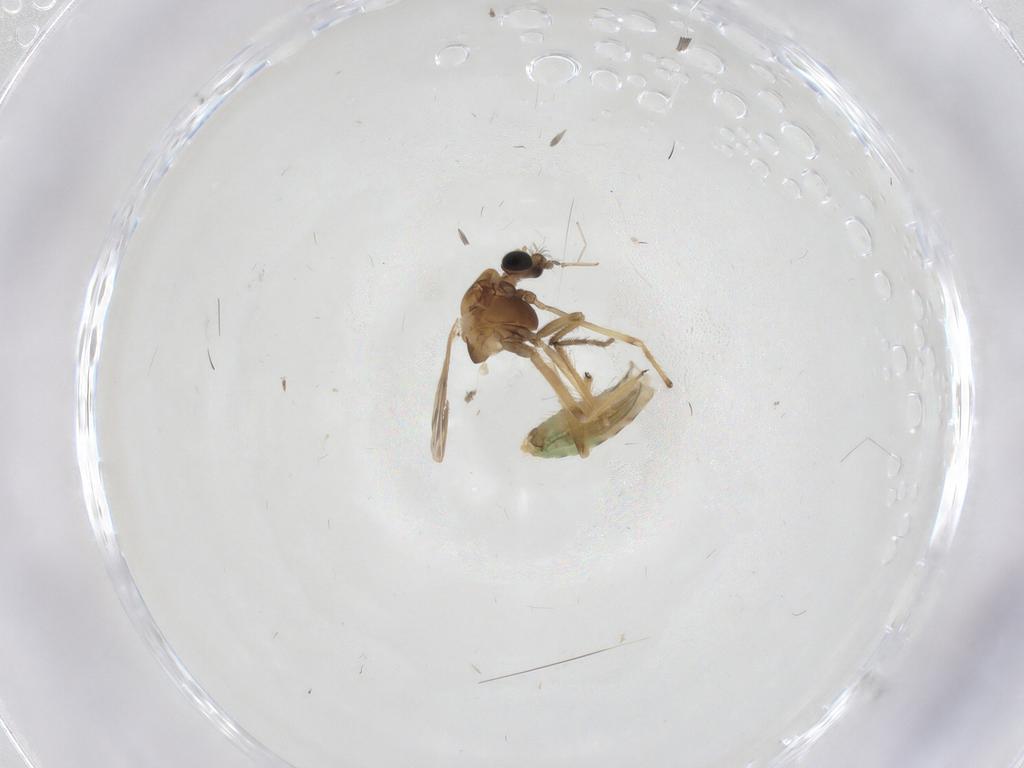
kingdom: Animalia
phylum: Arthropoda
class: Insecta
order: Diptera
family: Chironomidae
